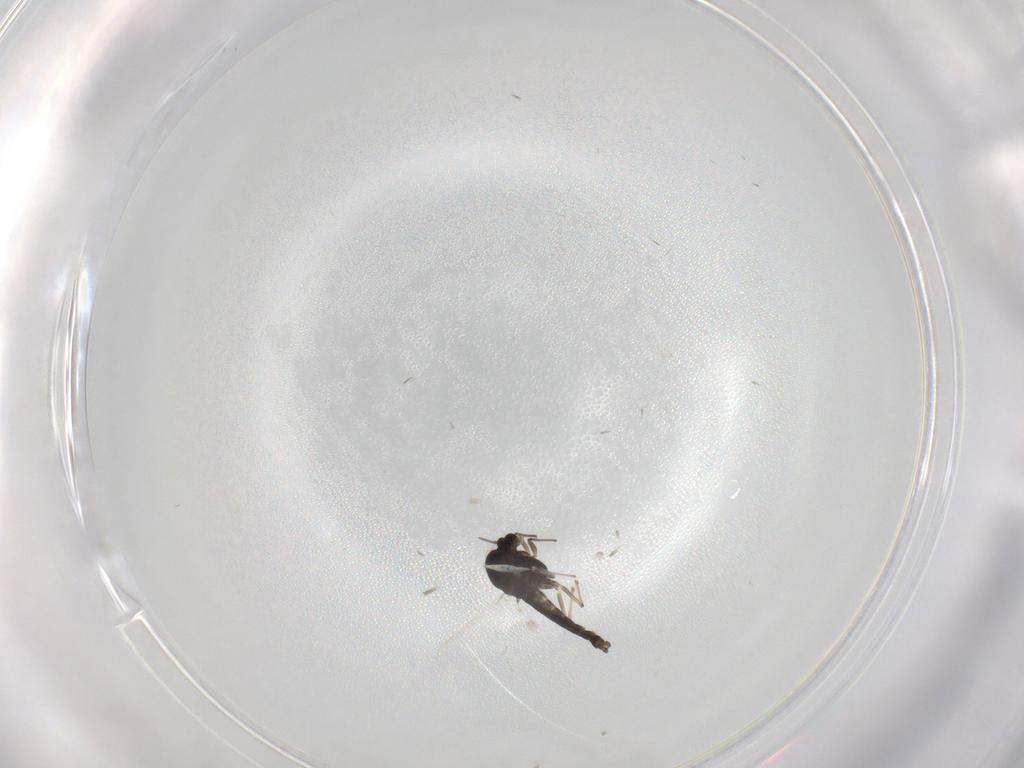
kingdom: Animalia
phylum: Arthropoda
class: Insecta
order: Diptera
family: Chironomidae
